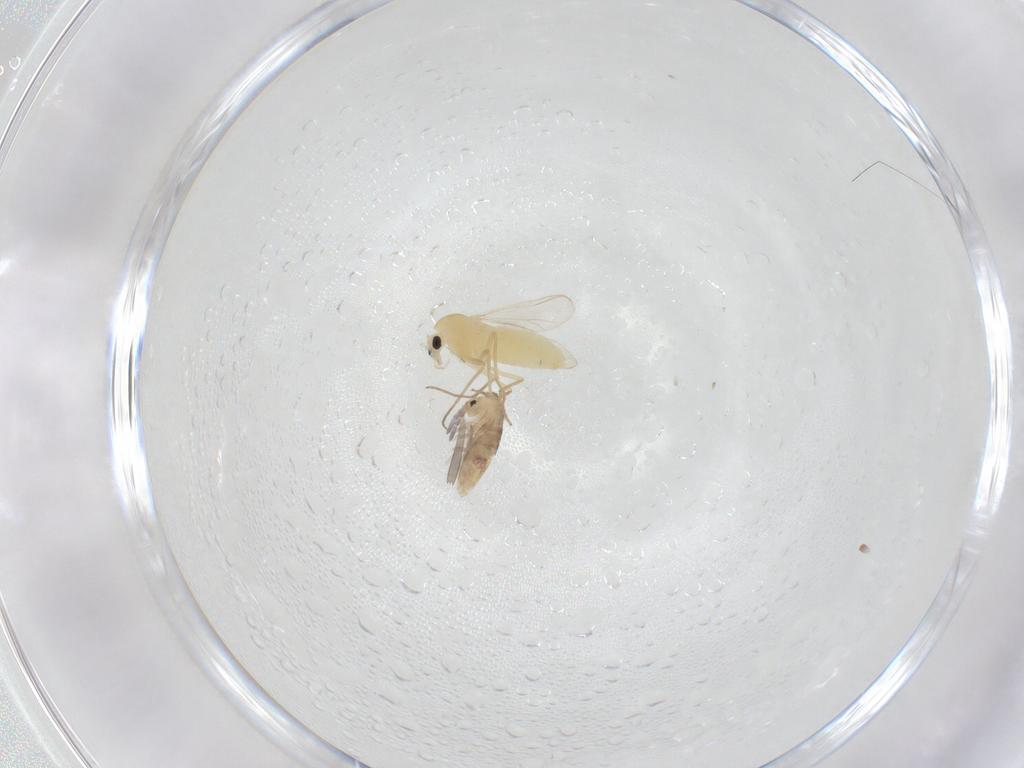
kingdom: Animalia
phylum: Arthropoda
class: Insecta
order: Diptera
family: Chironomidae
